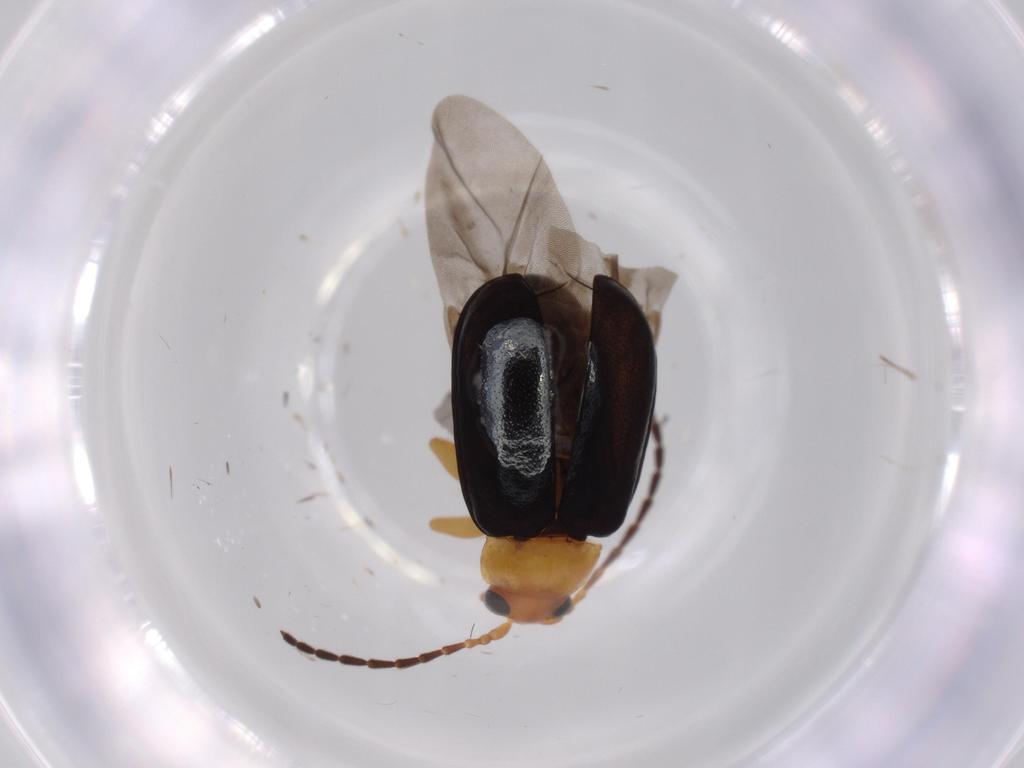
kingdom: Animalia
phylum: Arthropoda
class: Insecta
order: Coleoptera
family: Chrysomelidae
